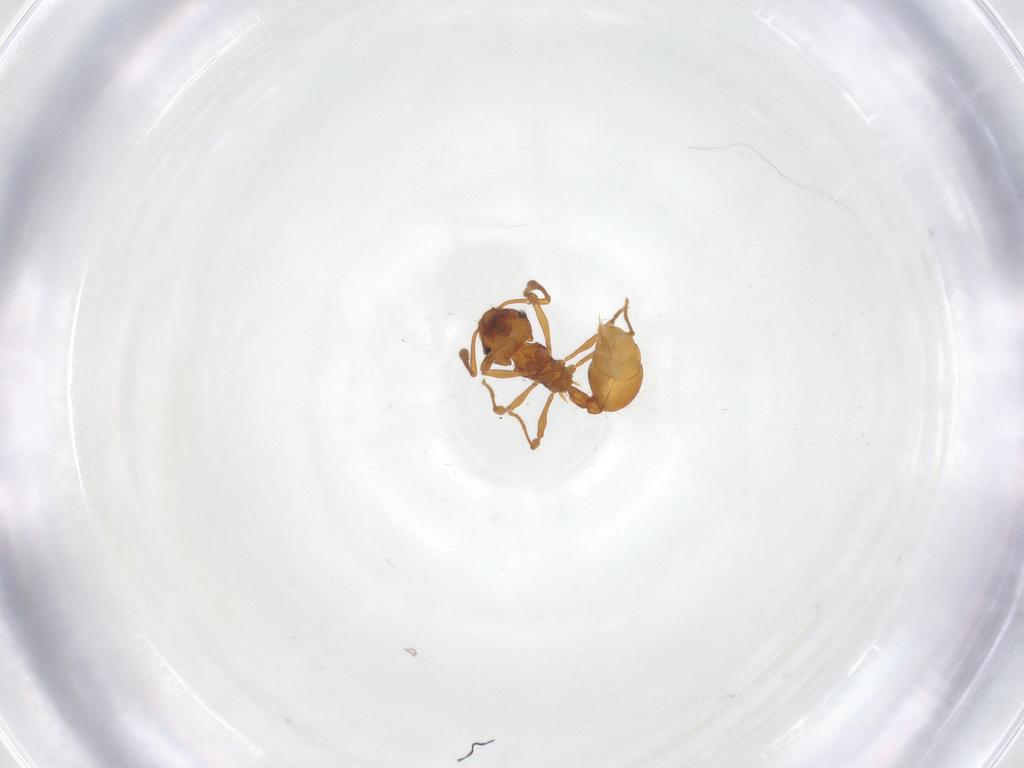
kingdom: Animalia
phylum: Arthropoda
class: Insecta
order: Hymenoptera
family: Formicidae
